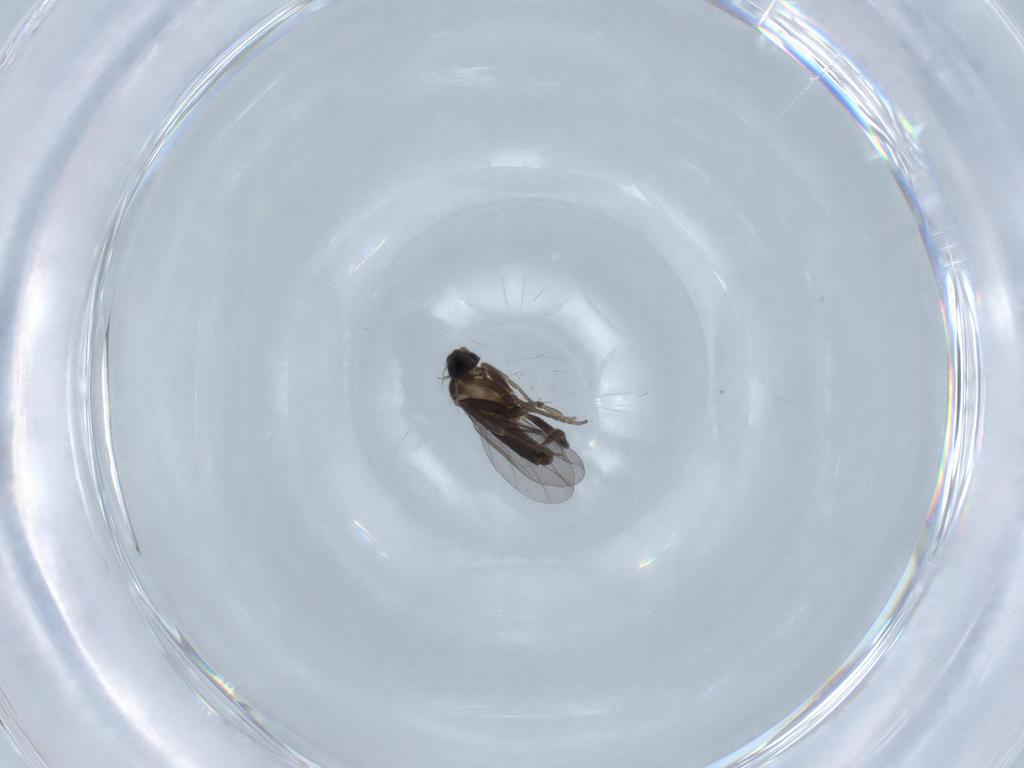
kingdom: Animalia
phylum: Arthropoda
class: Insecta
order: Diptera
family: Chironomidae
